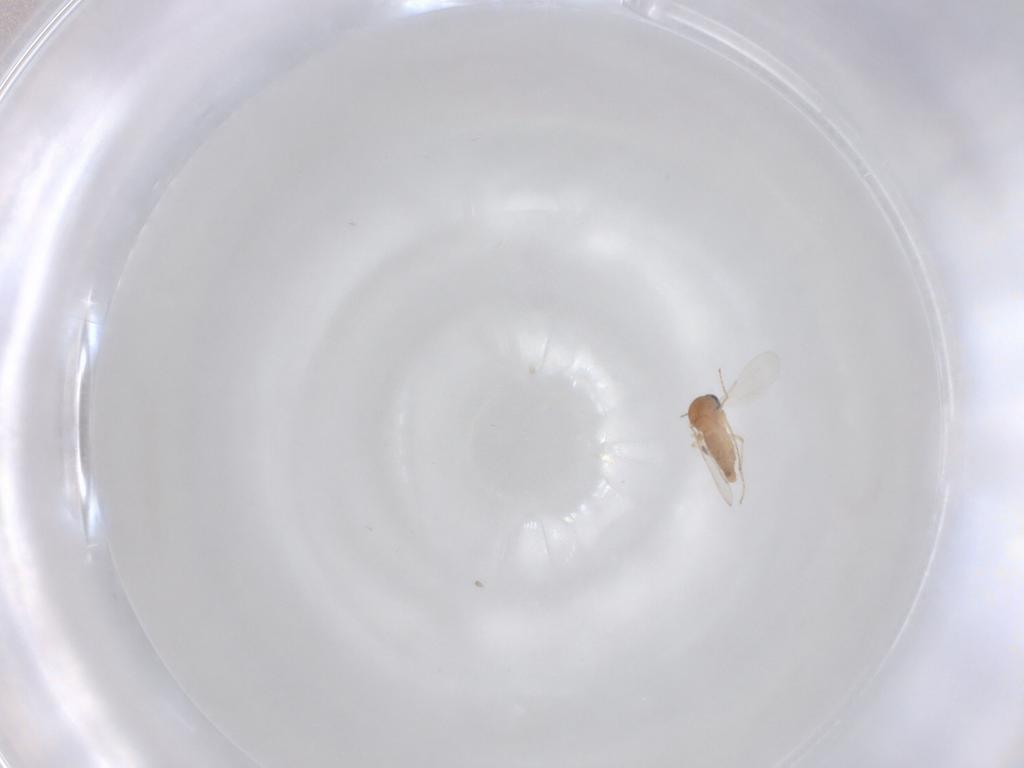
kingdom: Animalia
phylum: Arthropoda
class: Insecta
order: Diptera
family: Ceratopogonidae
